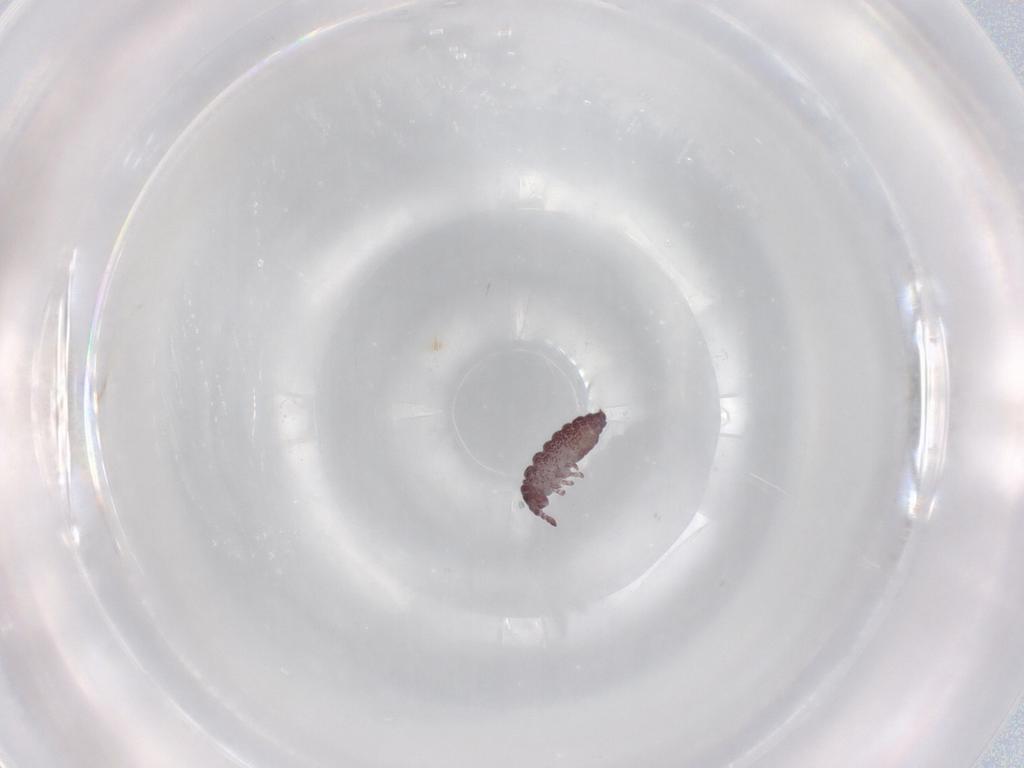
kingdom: Animalia
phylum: Arthropoda
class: Collembola
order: Poduromorpha
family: Hypogastruridae
